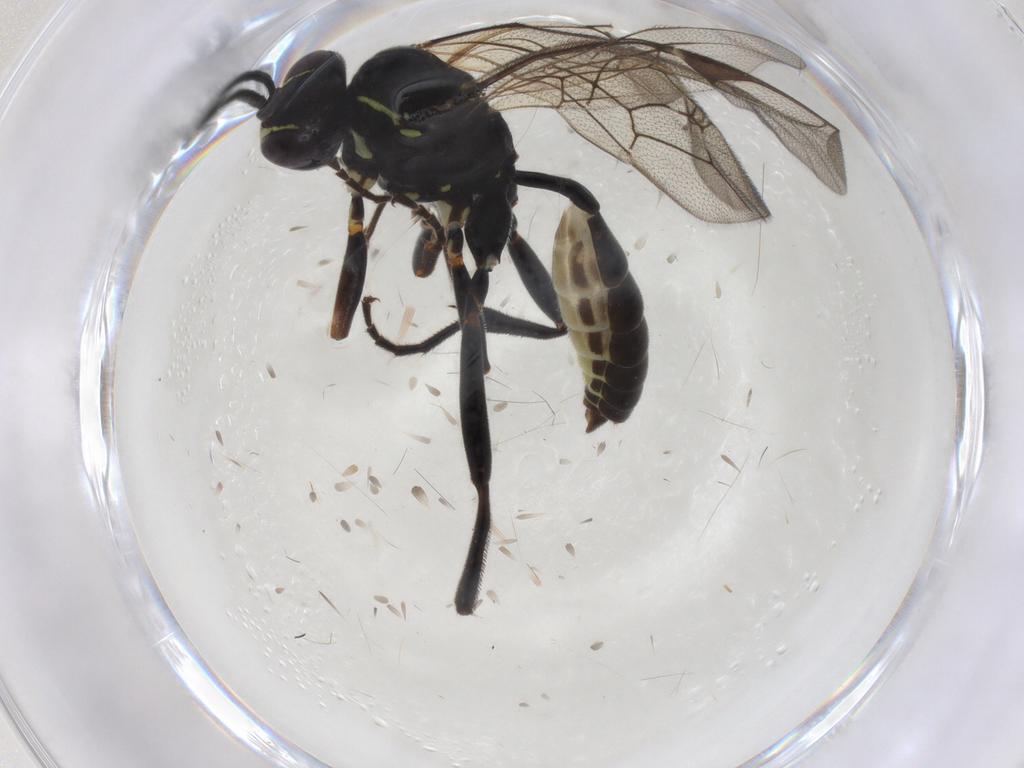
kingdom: Animalia
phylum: Arthropoda
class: Insecta
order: Hymenoptera
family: Ichneumonidae
